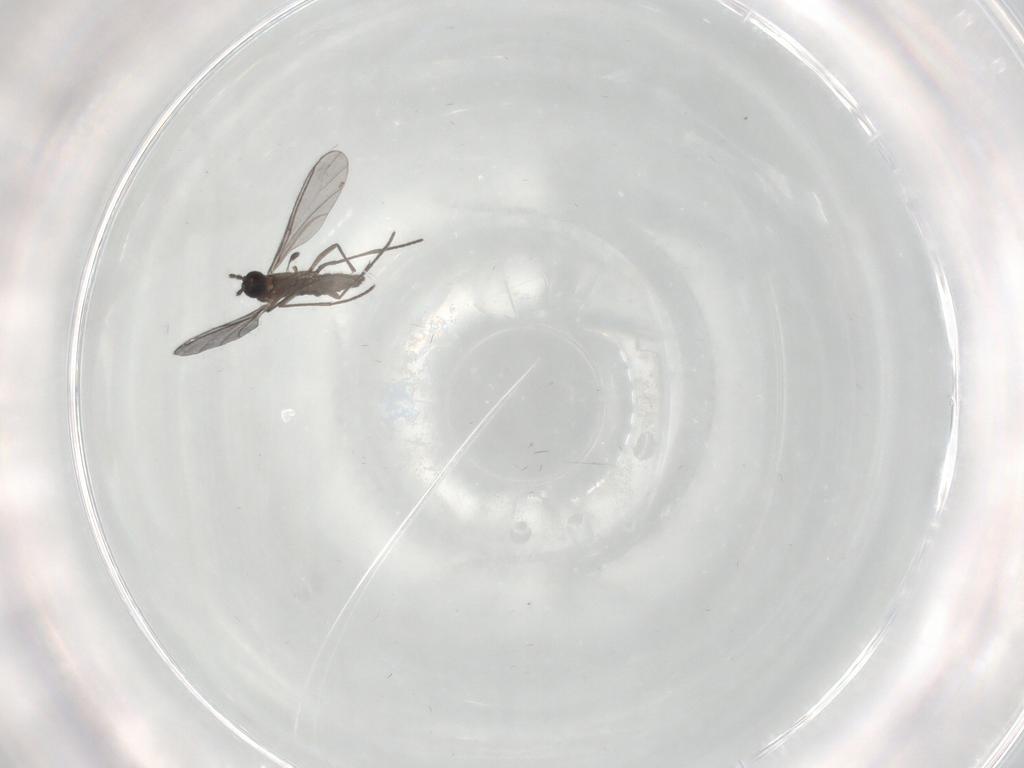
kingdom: Animalia
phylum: Arthropoda
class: Insecta
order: Diptera
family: Cecidomyiidae
